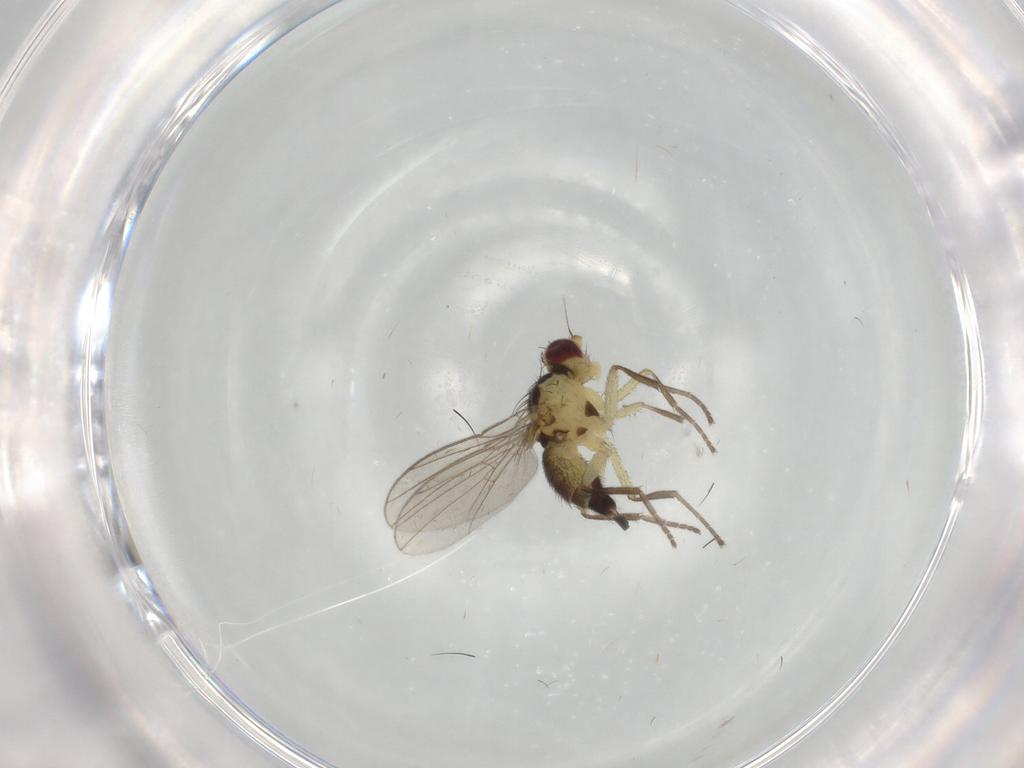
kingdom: Animalia
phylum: Arthropoda
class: Insecta
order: Diptera
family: Agromyzidae
